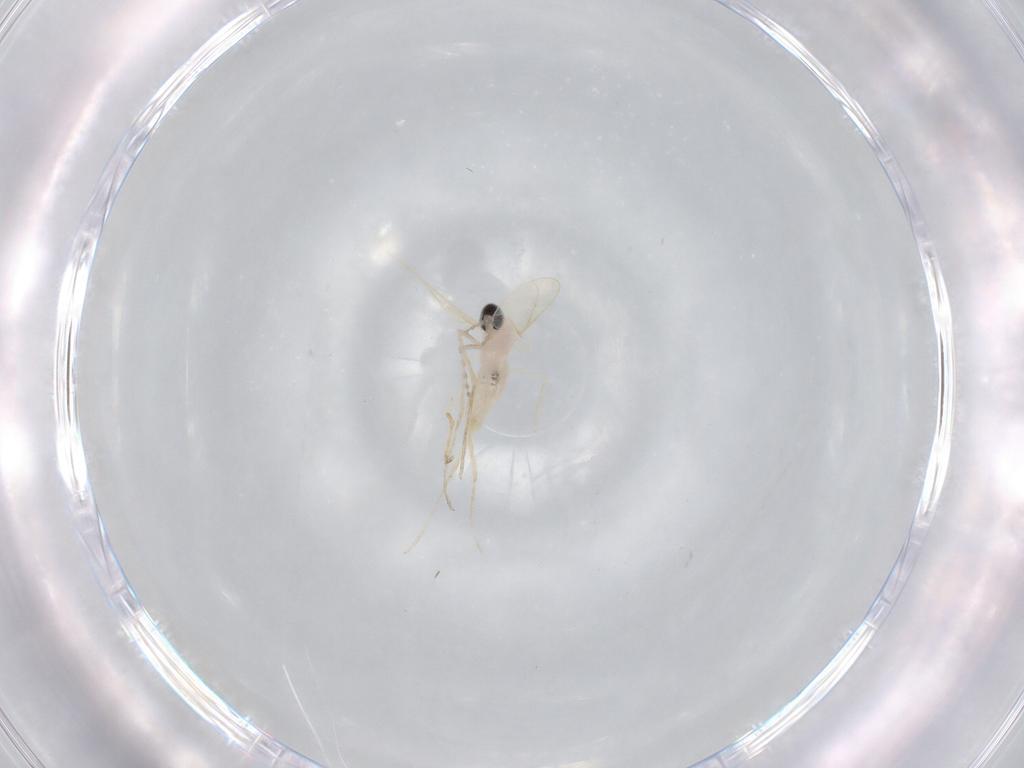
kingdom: Animalia
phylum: Arthropoda
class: Insecta
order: Diptera
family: Cecidomyiidae
